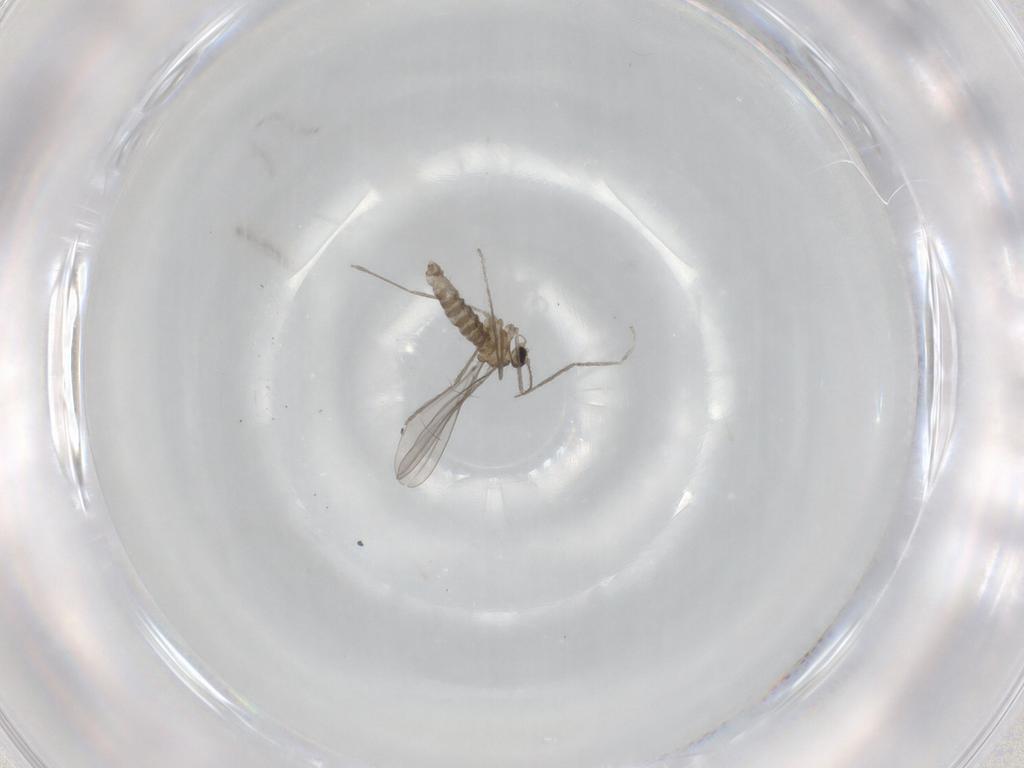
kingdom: Animalia
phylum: Arthropoda
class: Insecta
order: Diptera
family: Cecidomyiidae
